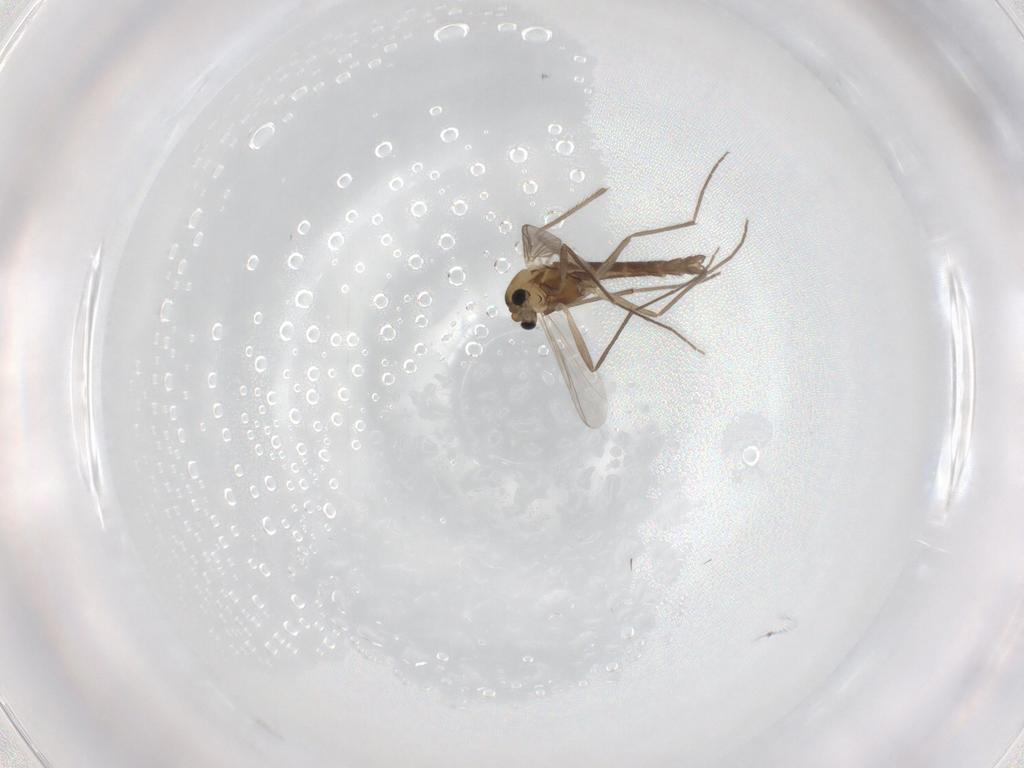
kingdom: Animalia
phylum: Arthropoda
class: Insecta
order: Diptera
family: Chironomidae
